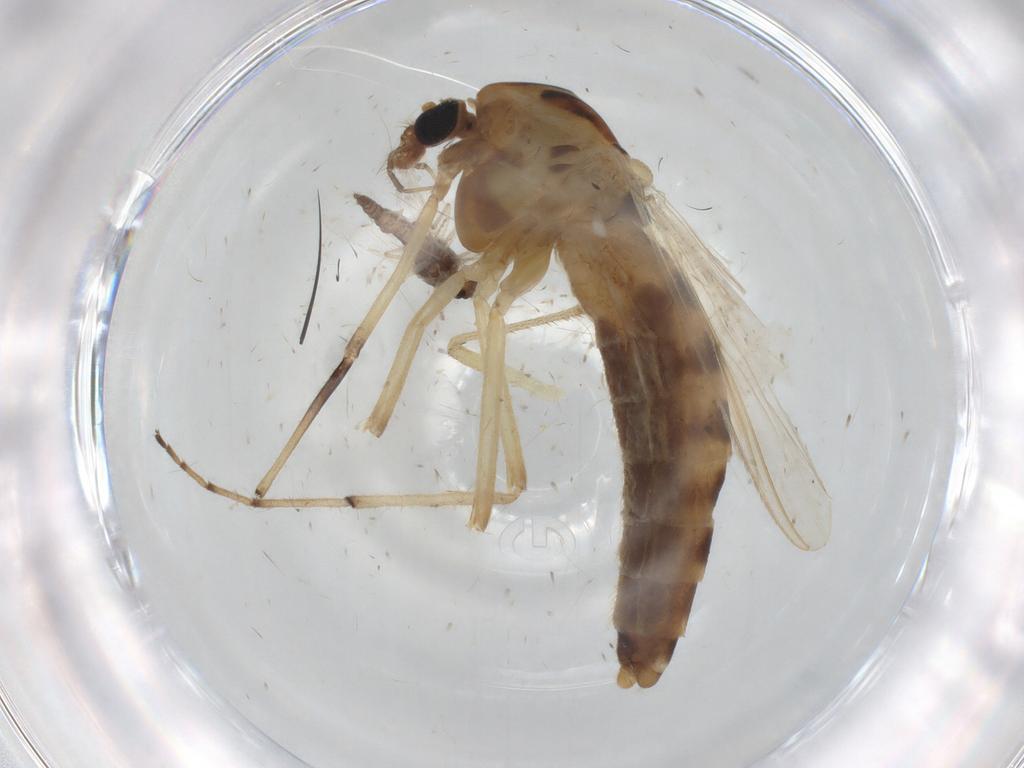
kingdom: Animalia
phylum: Arthropoda
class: Insecta
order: Diptera
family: Chironomidae
